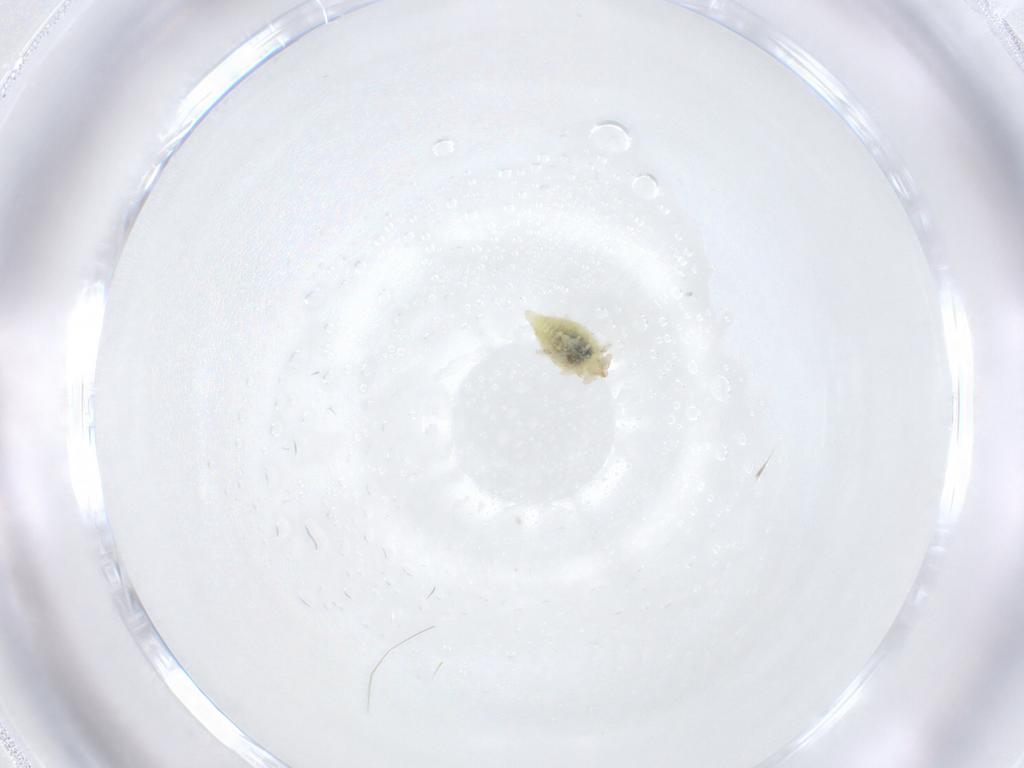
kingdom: Animalia
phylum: Arthropoda
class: Insecta
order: Neuroptera
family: Coniopterygidae
